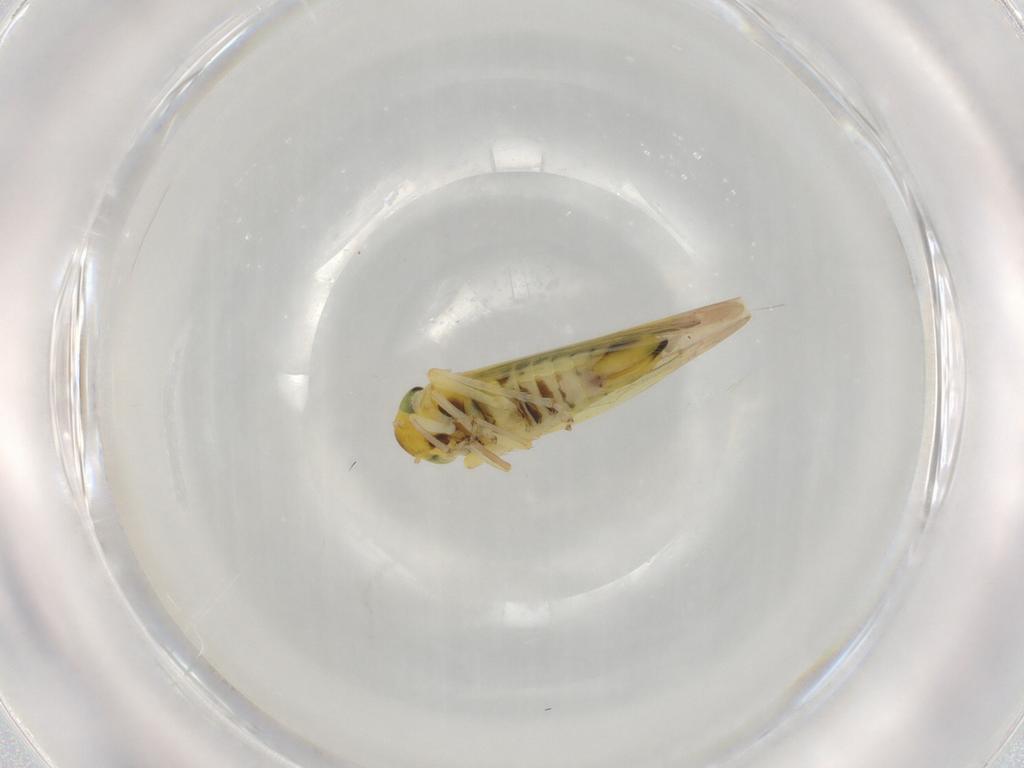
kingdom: Animalia
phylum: Arthropoda
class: Insecta
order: Hemiptera
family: Cicadellidae
